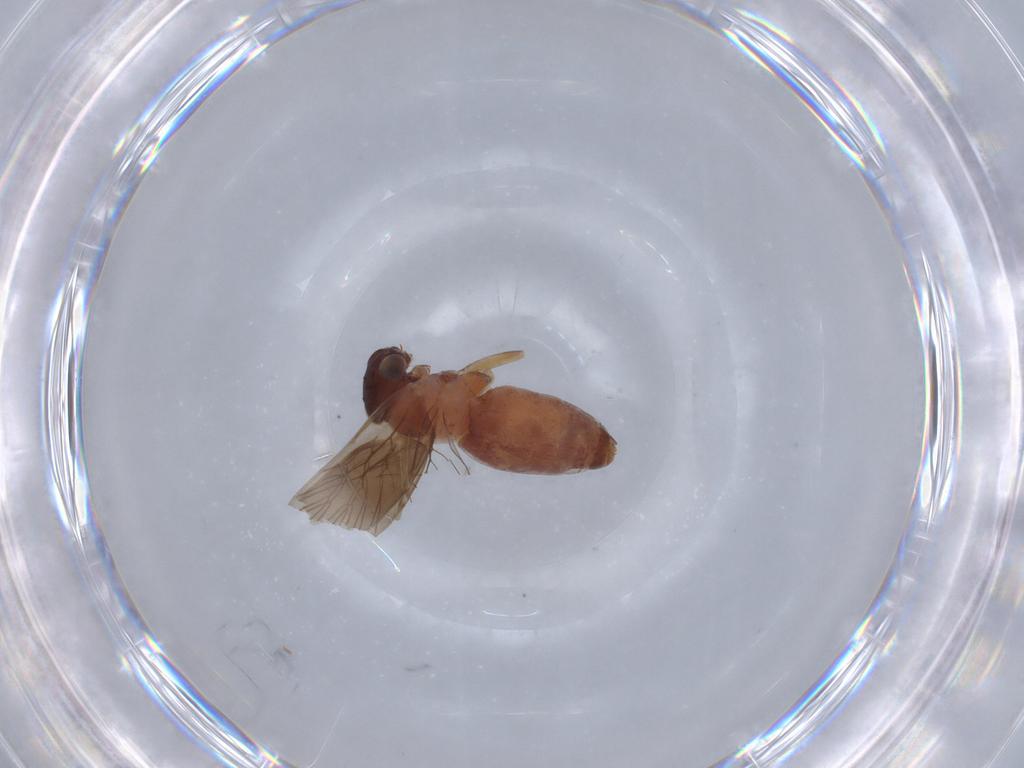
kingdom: Animalia
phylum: Arthropoda
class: Insecta
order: Psocodea
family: Lepidopsocidae
